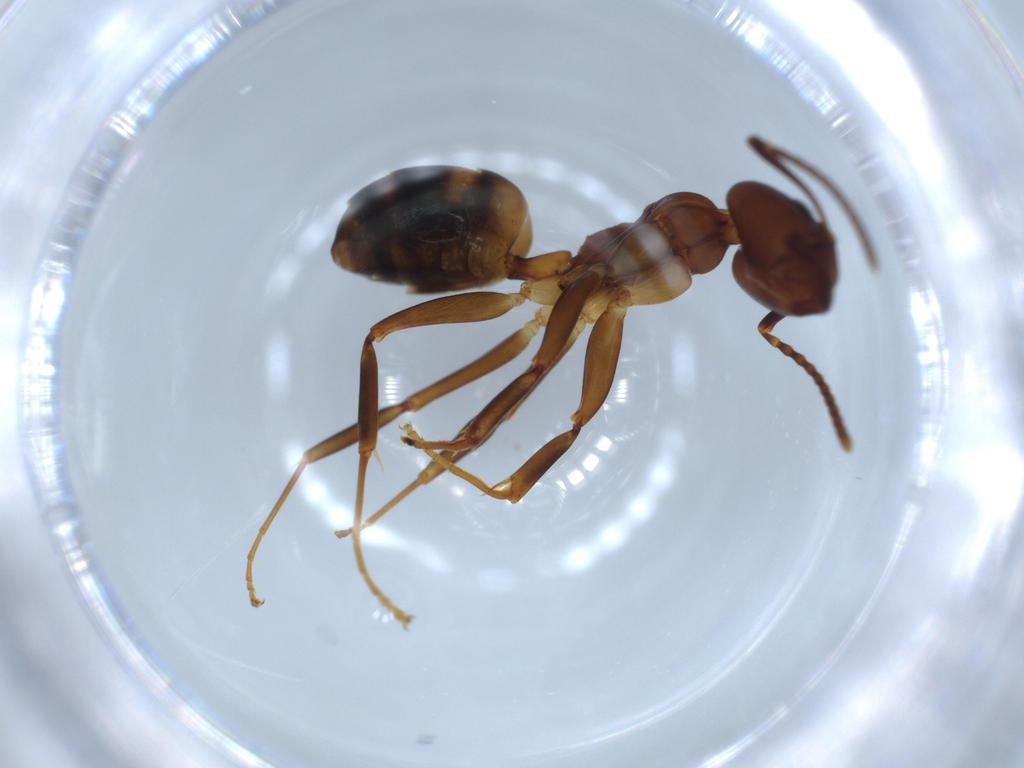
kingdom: Animalia
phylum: Arthropoda
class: Insecta
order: Hymenoptera
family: Formicidae
